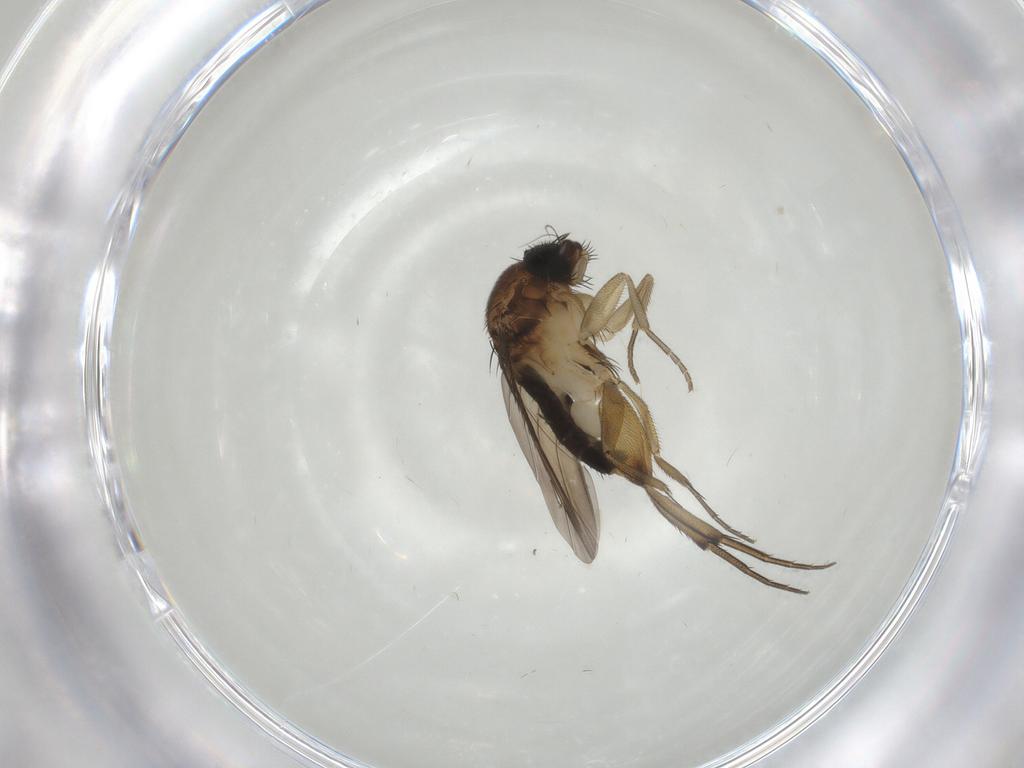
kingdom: Animalia
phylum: Arthropoda
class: Insecta
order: Diptera
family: Phoridae
